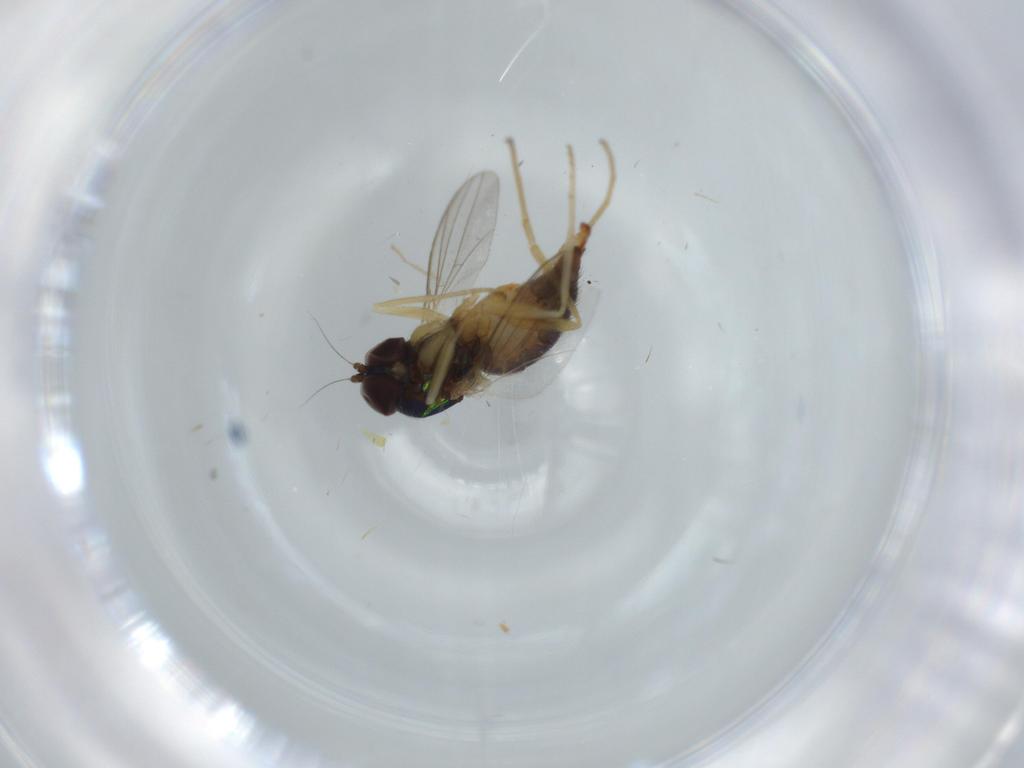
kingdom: Animalia
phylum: Arthropoda
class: Insecta
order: Diptera
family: Dolichopodidae
